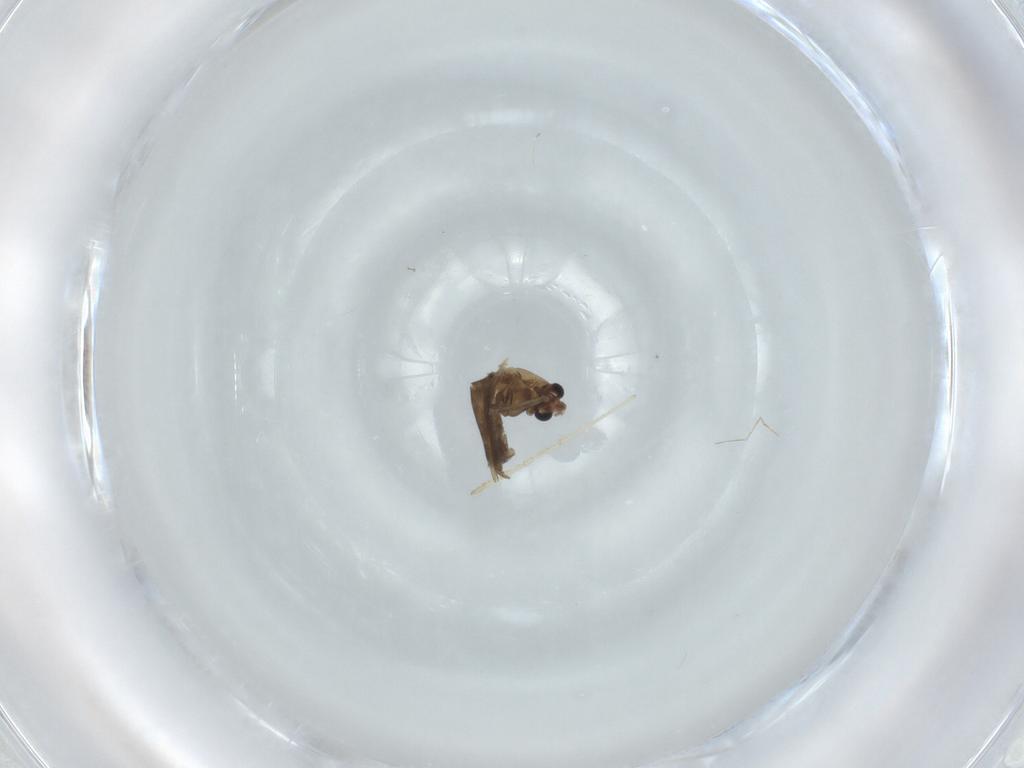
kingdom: Animalia
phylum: Arthropoda
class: Insecta
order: Diptera
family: Chironomidae
